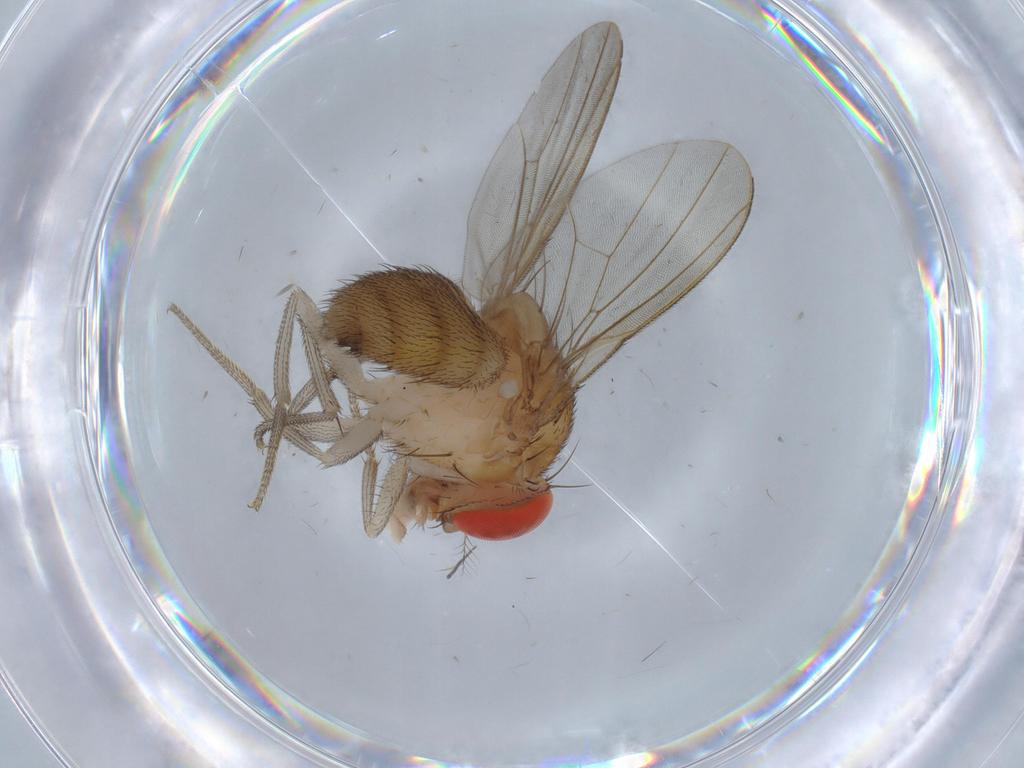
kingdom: Animalia
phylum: Arthropoda
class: Insecta
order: Diptera
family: Drosophilidae
